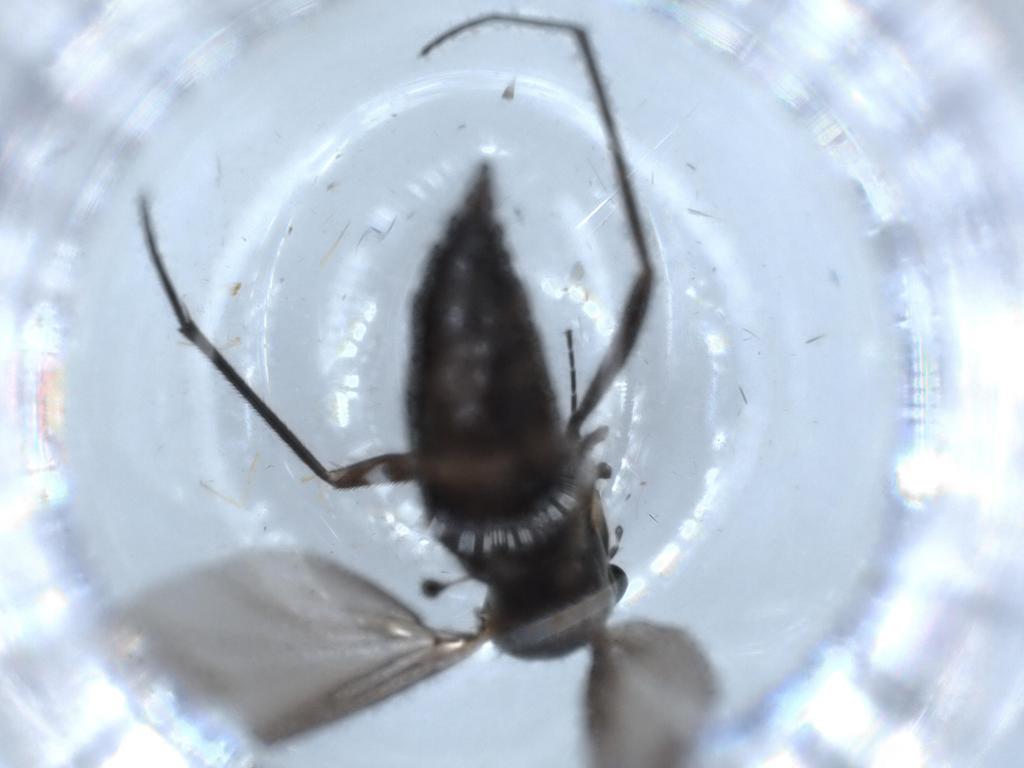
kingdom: Animalia
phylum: Arthropoda
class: Insecta
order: Diptera
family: Sciaridae
